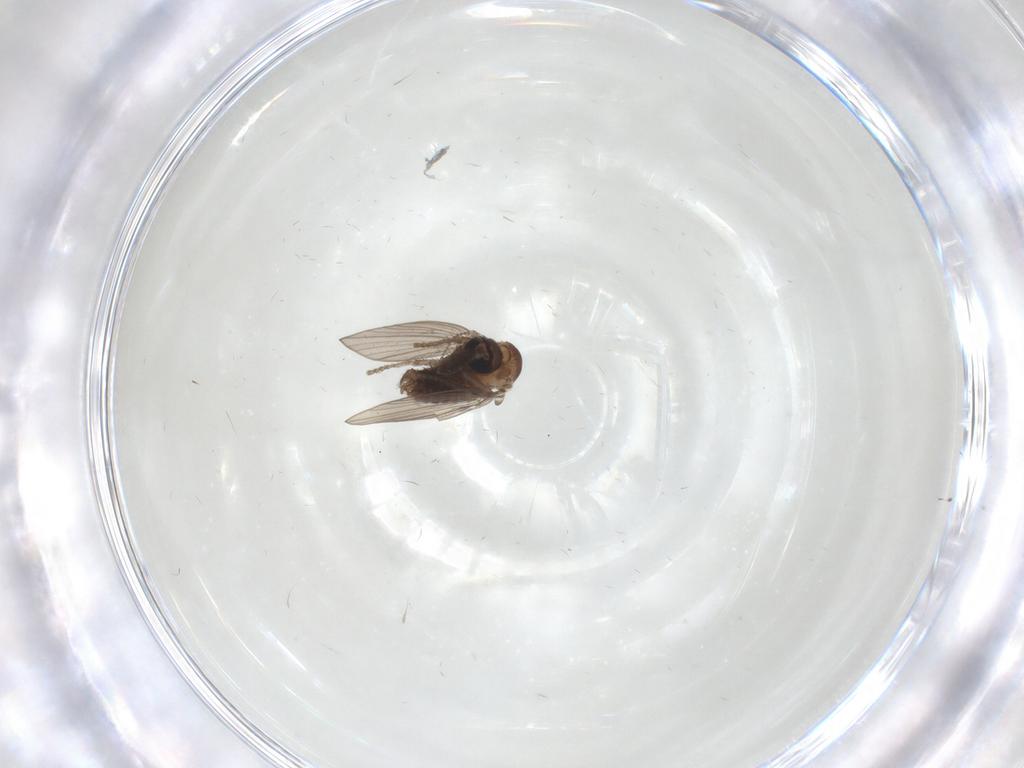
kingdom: Animalia
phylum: Arthropoda
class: Insecta
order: Diptera
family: Psychodidae
